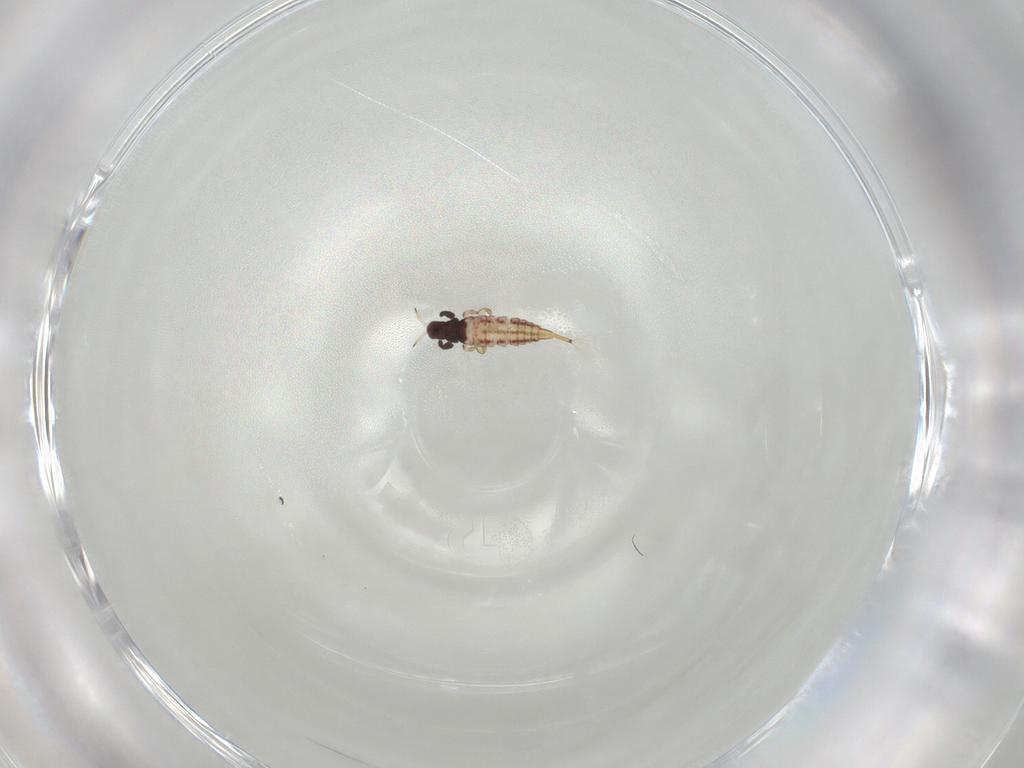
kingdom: Animalia
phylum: Arthropoda
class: Insecta
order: Thysanoptera
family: Phlaeothripidae
